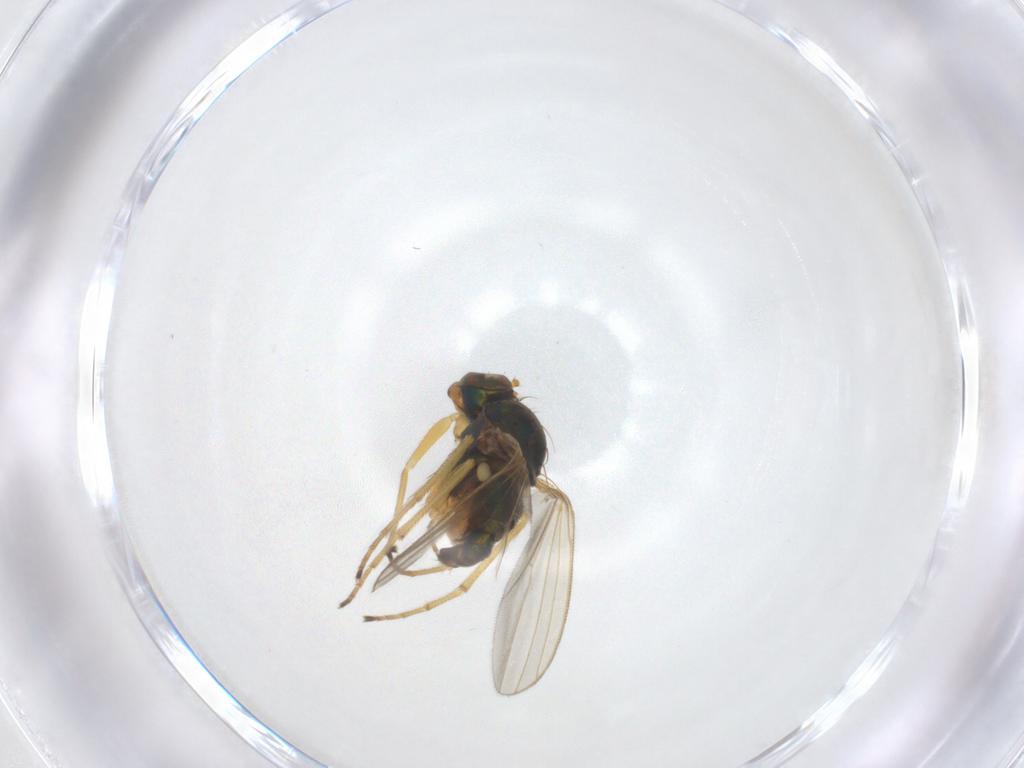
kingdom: Animalia
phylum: Arthropoda
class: Insecta
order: Diptera
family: Dolichopodidae
